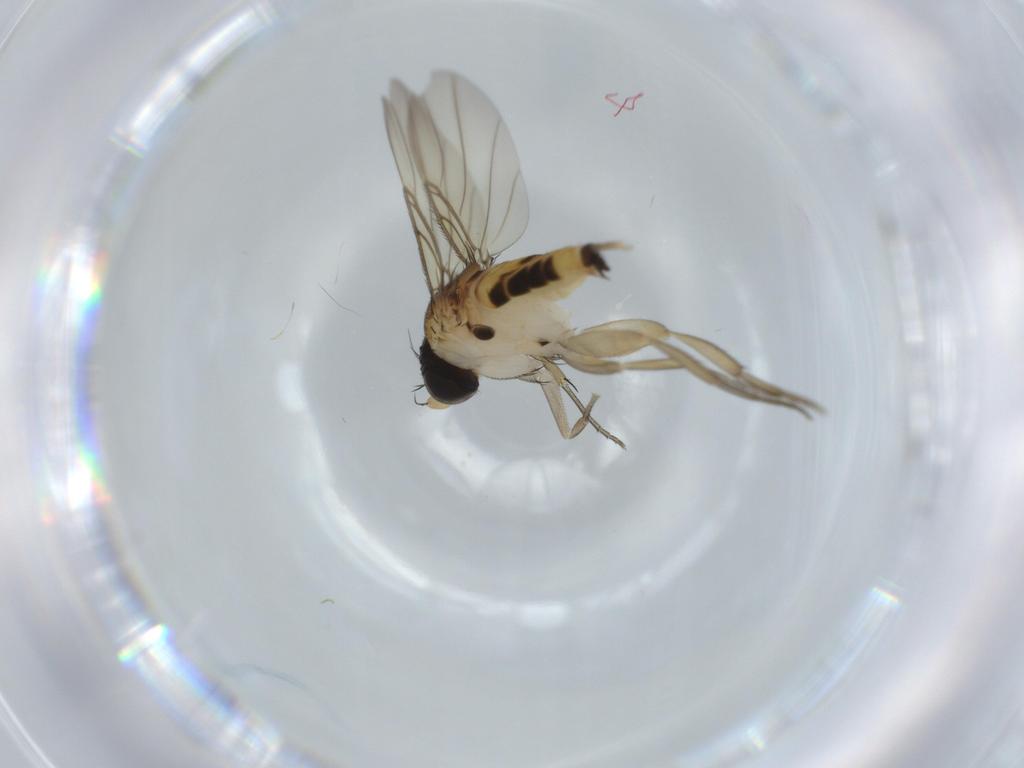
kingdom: Animalia
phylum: Arthropoda
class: Insecta
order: Diptera
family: Phoridae
